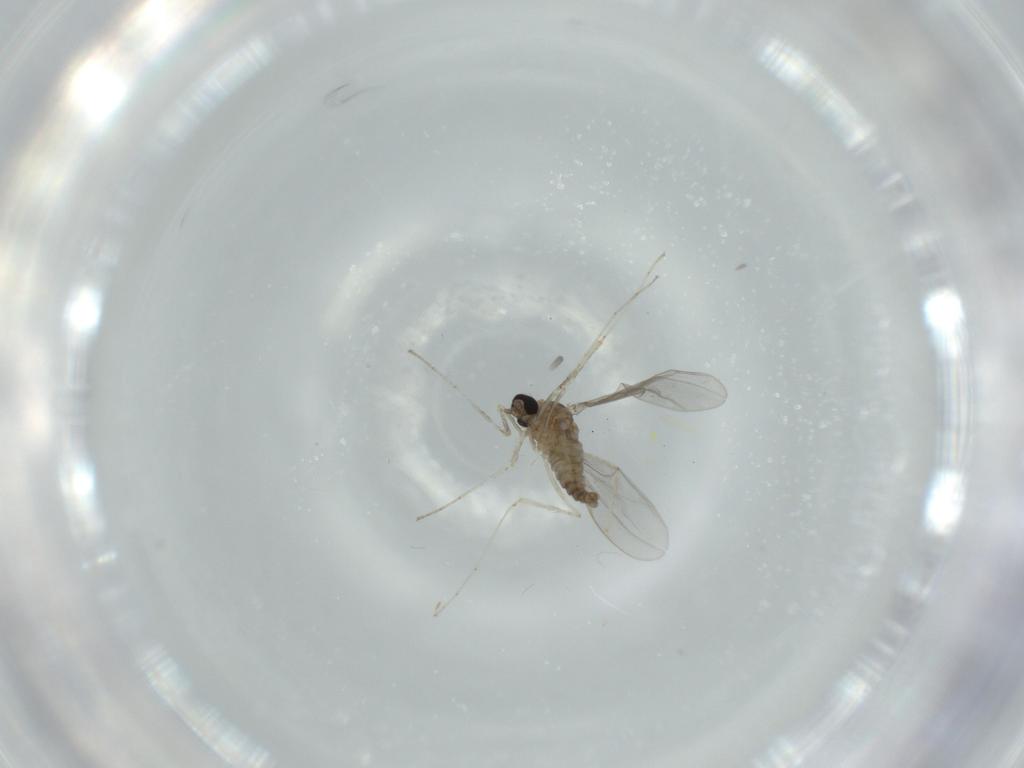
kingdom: Animalia
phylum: Arthropoda
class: Insecta
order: Diptera
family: Cecidomyiidae
